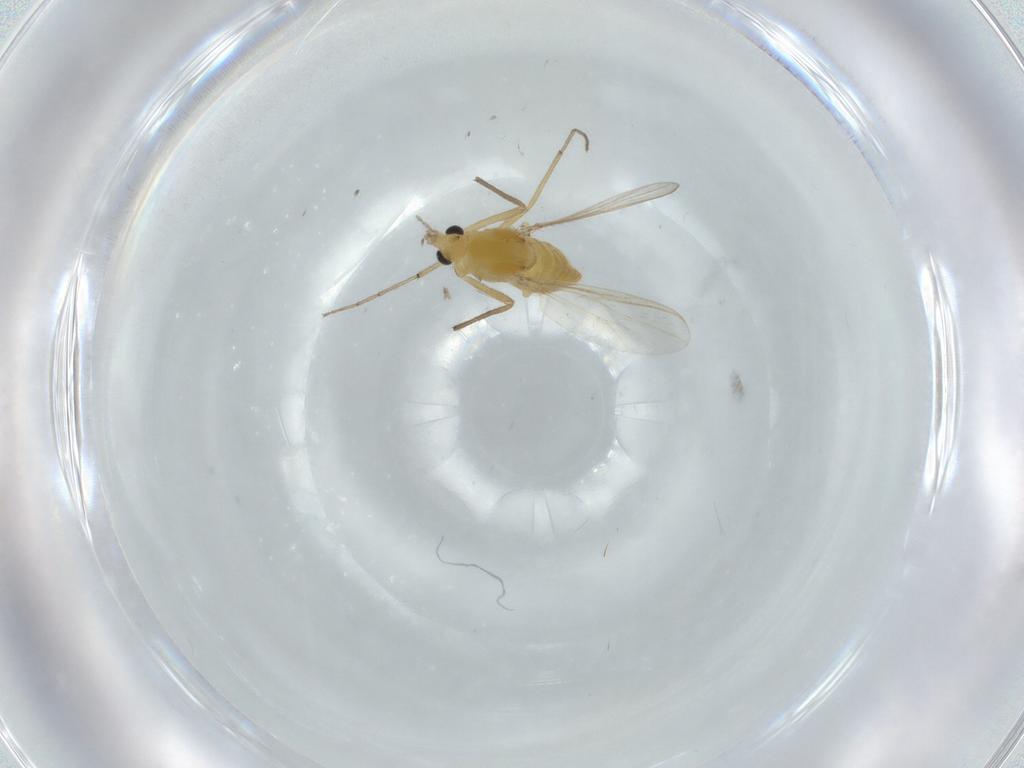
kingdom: Animalia
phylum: Arthropoda
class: Insecta
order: Diptera
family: Chironomidae
